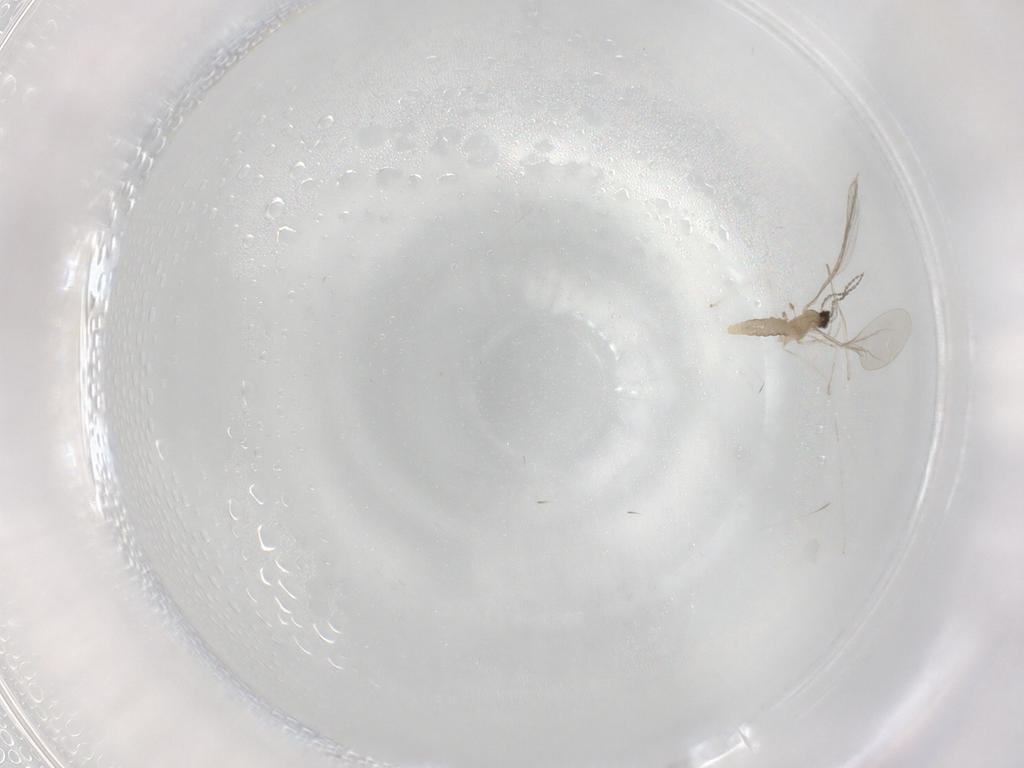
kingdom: Animalia
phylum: Arthropoda
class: Insecta
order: Diptera
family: Cecidomyiidae
